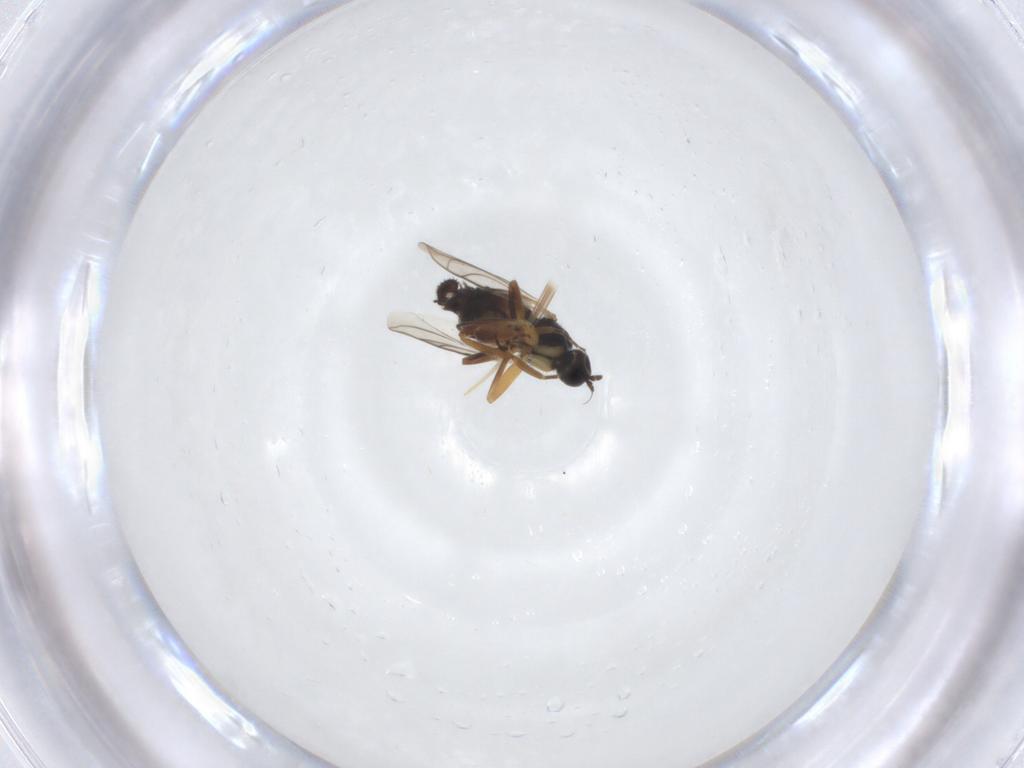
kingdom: Animalia
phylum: Arthropoda
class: Insecta
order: Diptera
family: Hybotidae
